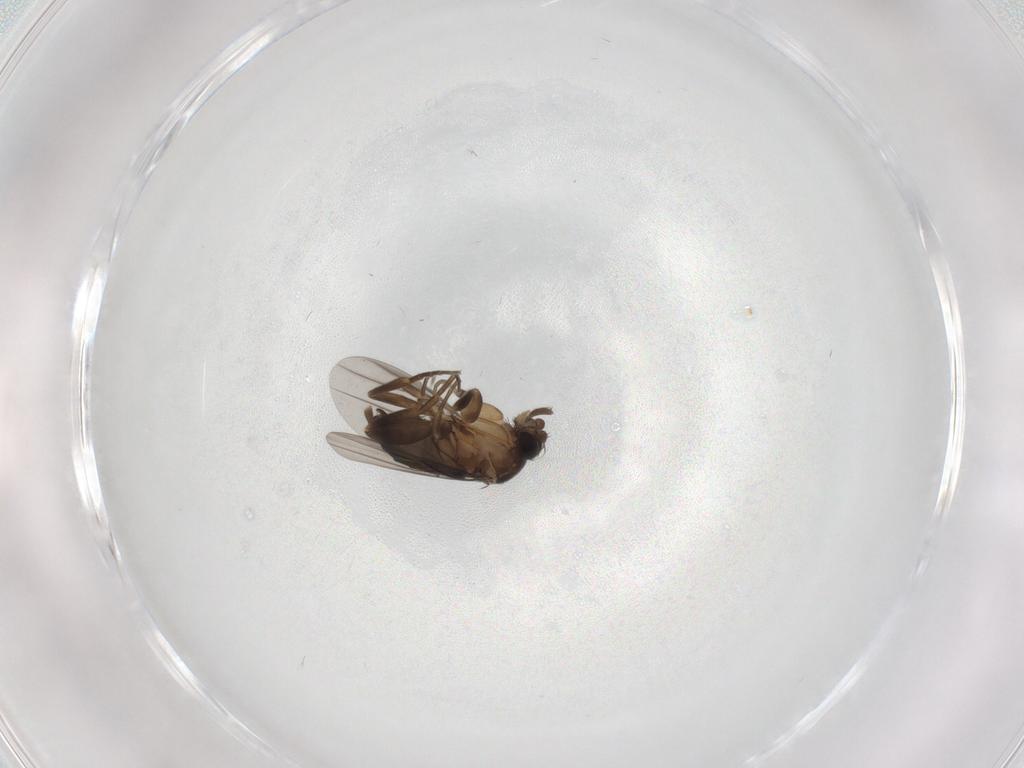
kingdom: Animalia
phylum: Arthropoda
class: Insecta
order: Diptera
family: Phoridae
